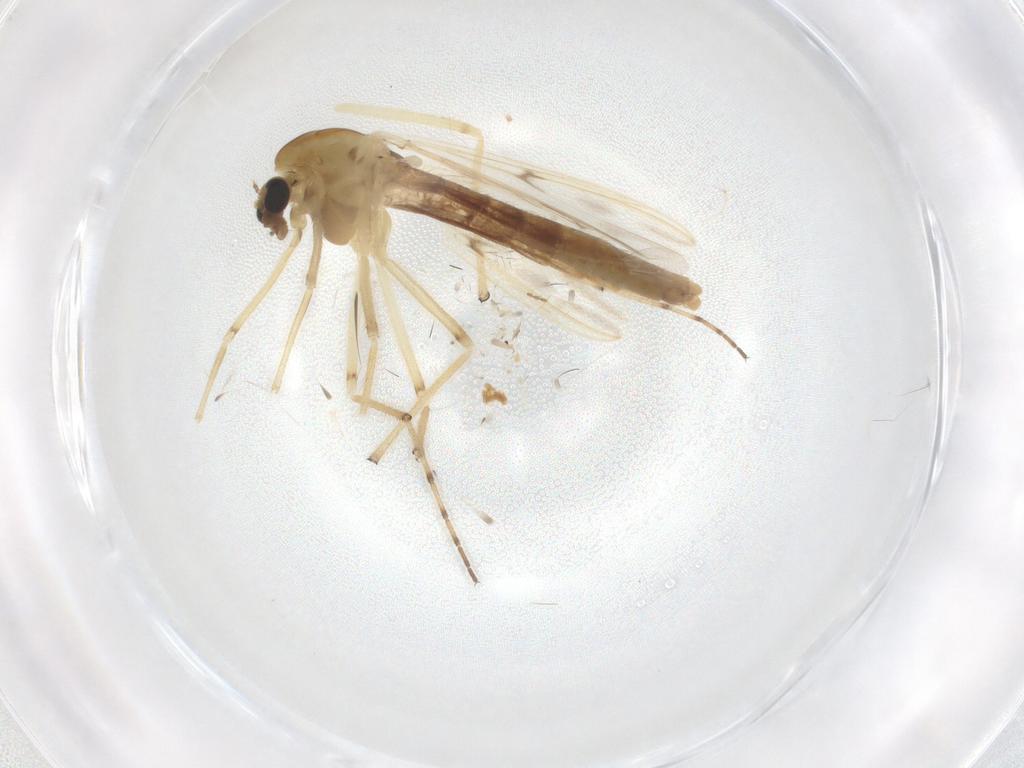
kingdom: Animalia
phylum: Arthropoda
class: Insecta
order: Diptera
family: Chironomidae
